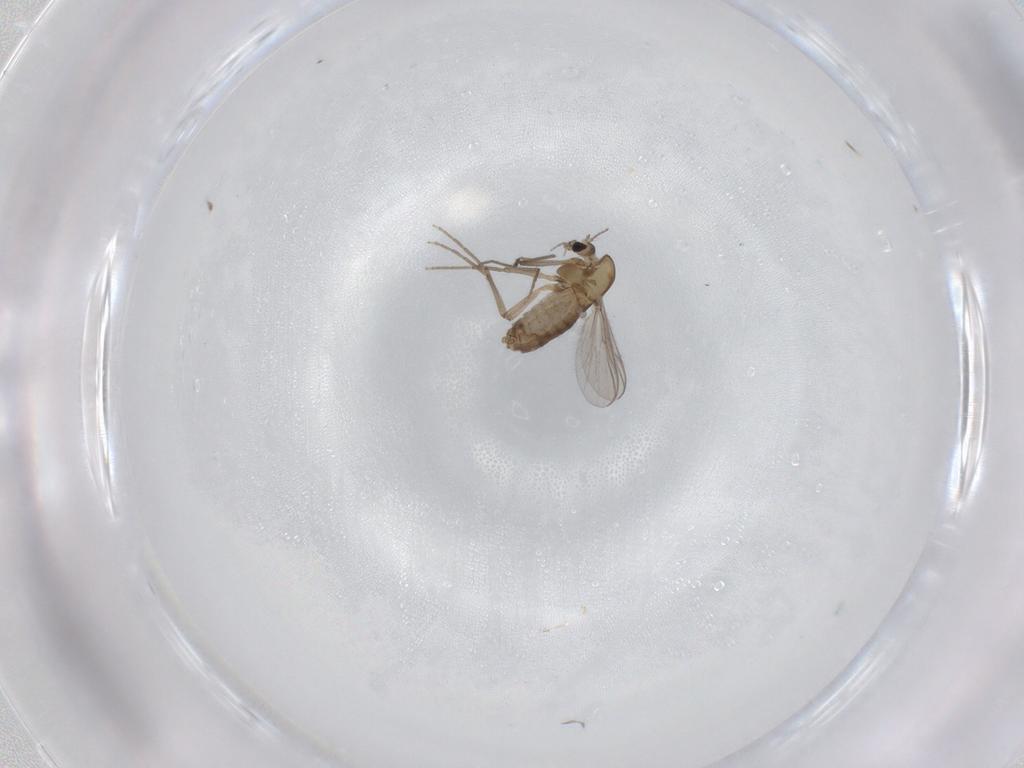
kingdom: Animalia
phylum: Arthropoda
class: Insecta
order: Diptera
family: Chironomidae
